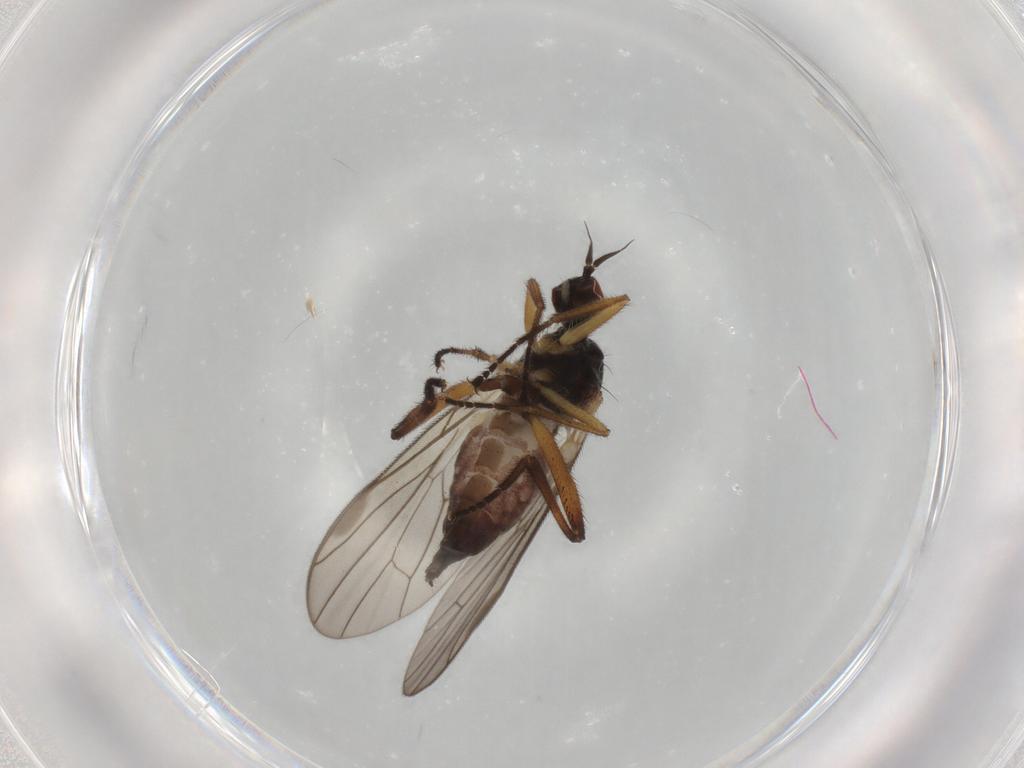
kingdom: Animalia
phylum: Arthropoda
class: Insecta
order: Diptera
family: Hybotidae
